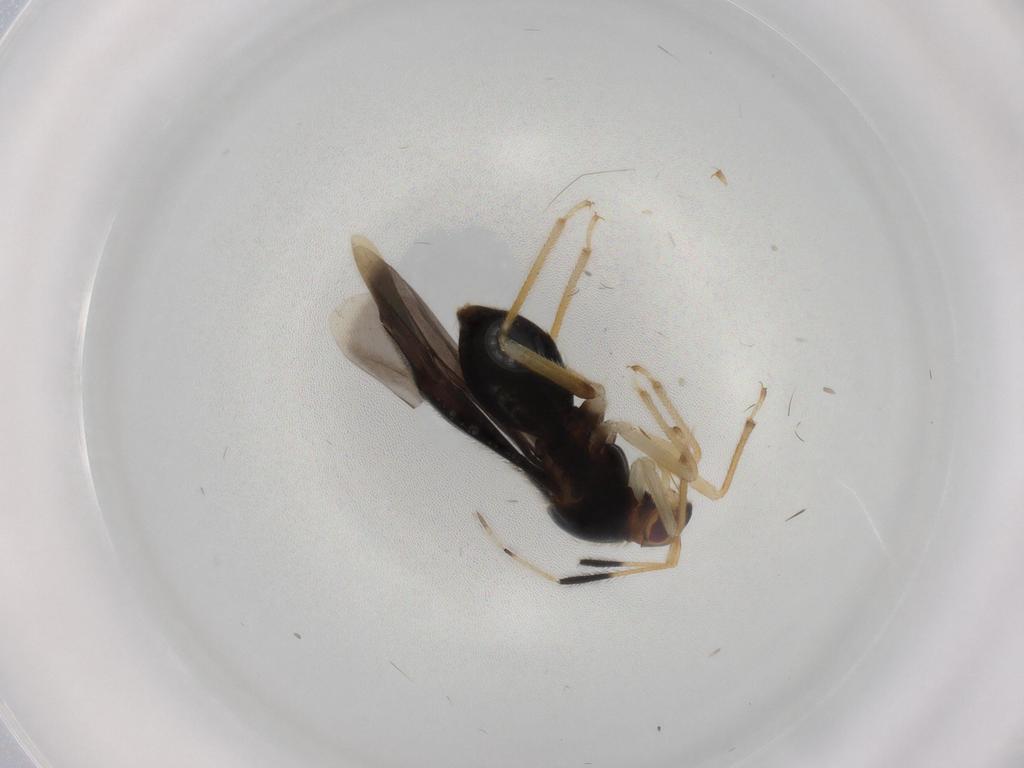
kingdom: Animalia
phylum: Arthropoda
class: Insecta
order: Hemiptera
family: Miridae
